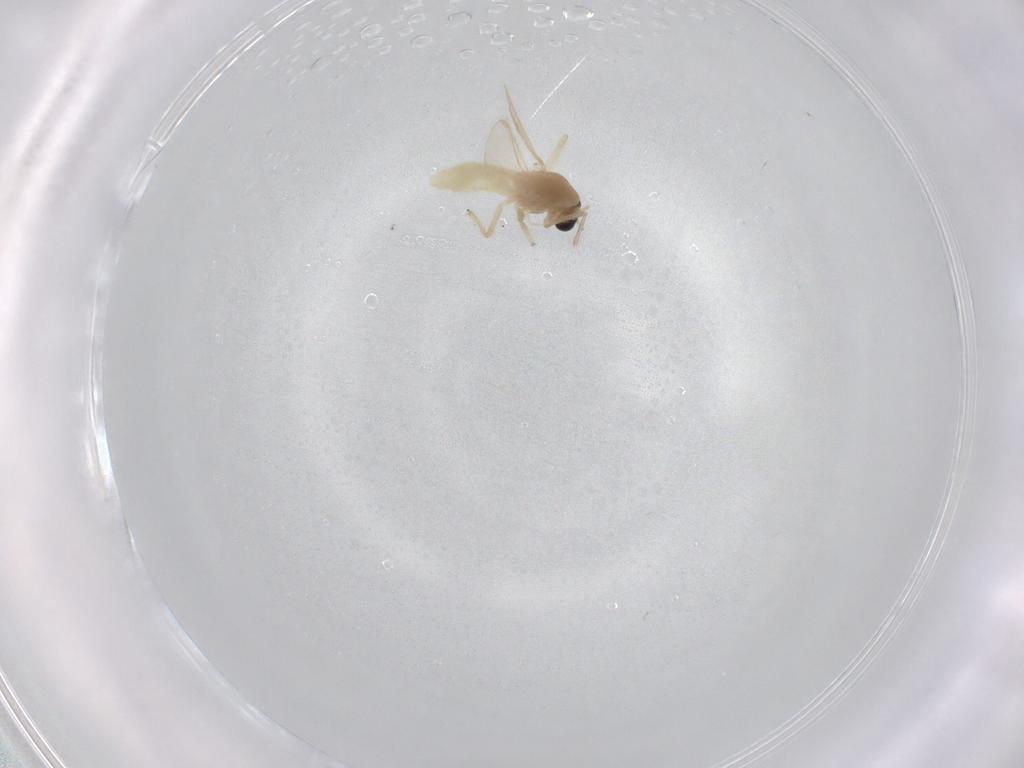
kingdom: Animalia
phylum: Arthropoda
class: Insecta
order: Diptera
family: Chironomidae
